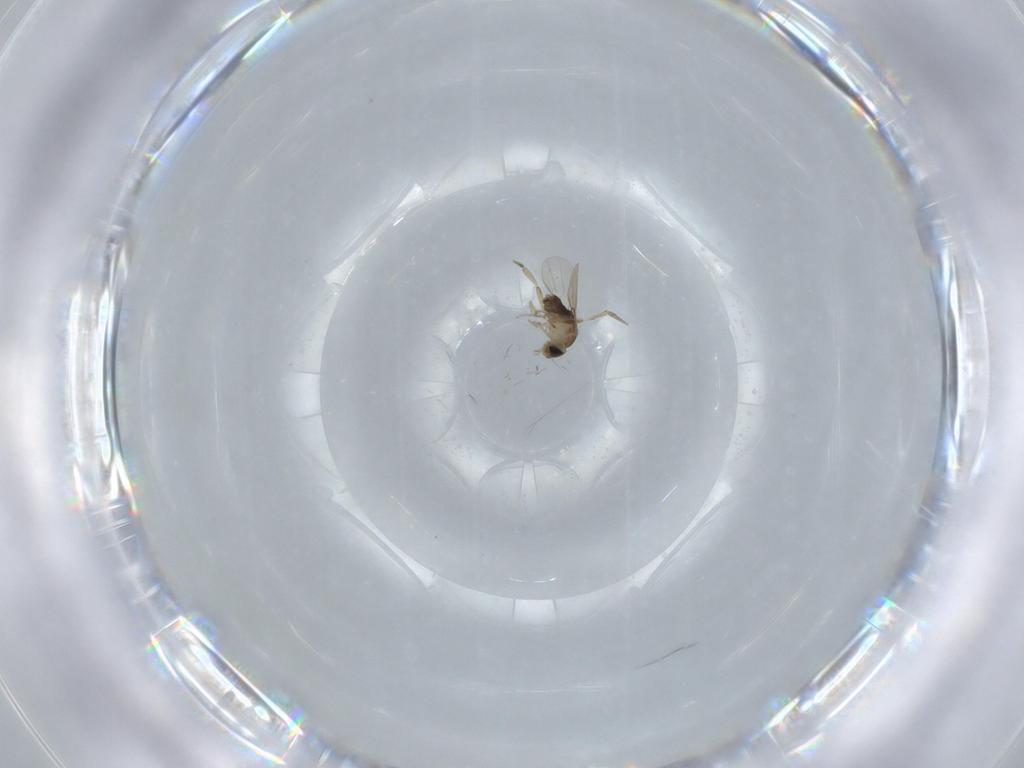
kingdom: Animalia
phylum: Arthropoda
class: Insecta
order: Diptera
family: Phoridae
